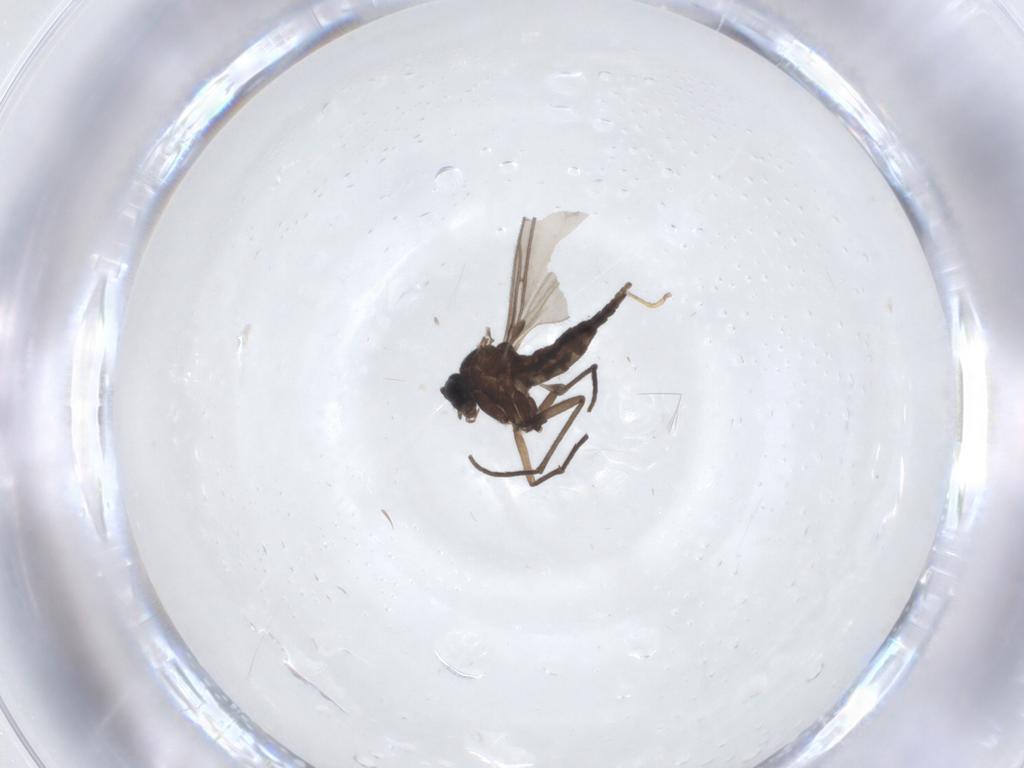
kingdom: Animalia
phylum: Arthropoda
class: Insecta
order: Diptera
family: Sciaridae
